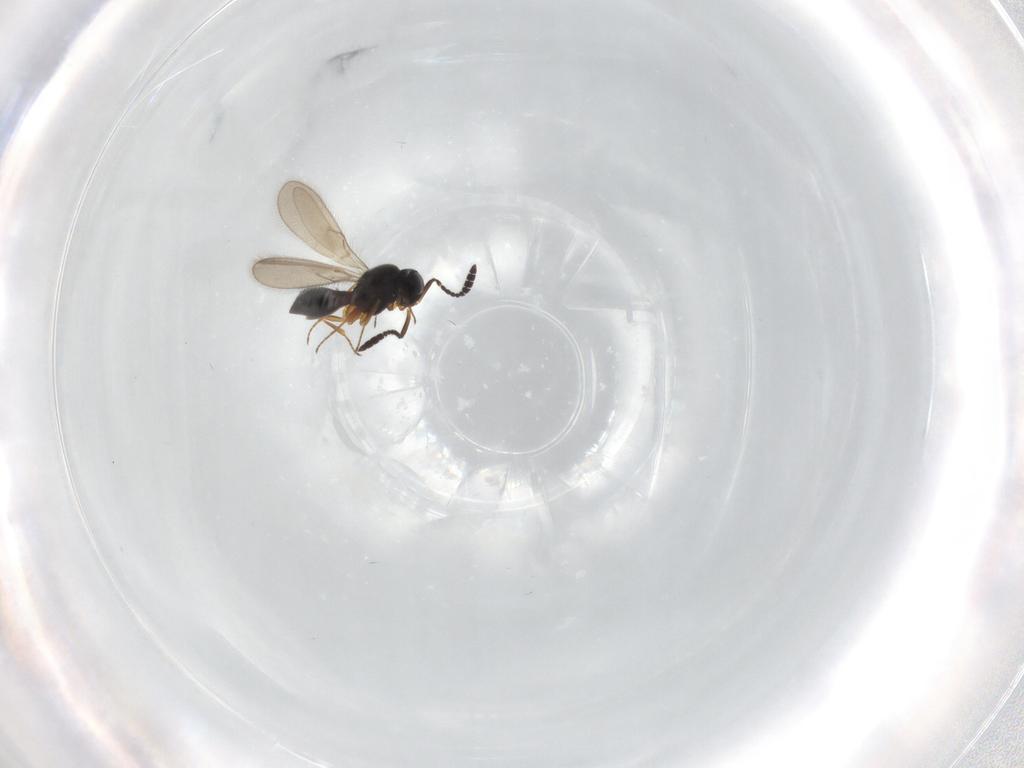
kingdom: Animalia
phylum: Arthropoda
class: Insecta
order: Hymenoptera
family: Scelionidae
